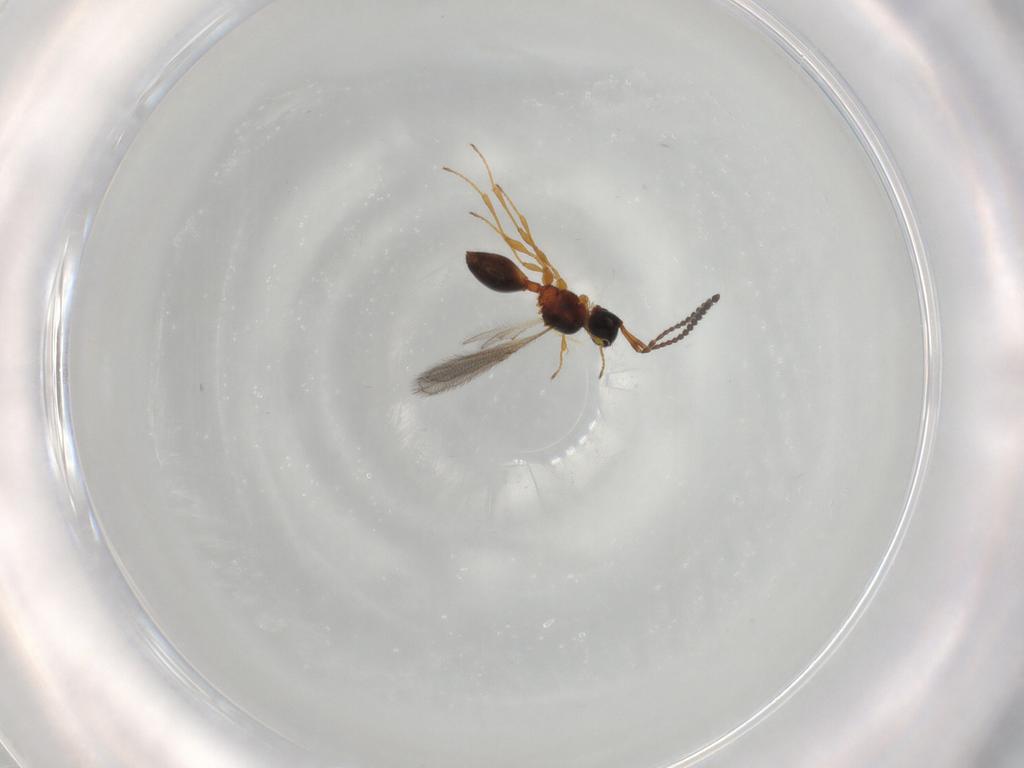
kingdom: Animalia
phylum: Arthropoda
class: Insecta
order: Hymenoptera
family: Diapriidae
